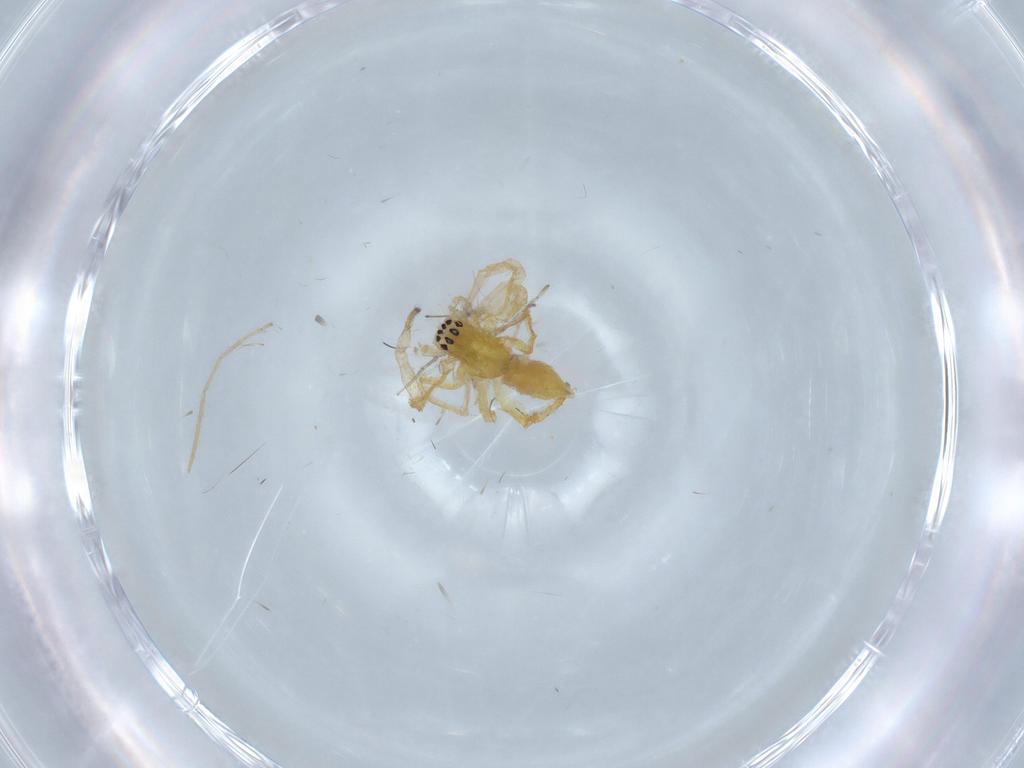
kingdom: Animalia
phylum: Arthropoda
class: Arachnida
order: Araneae
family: Anyphaenidae
